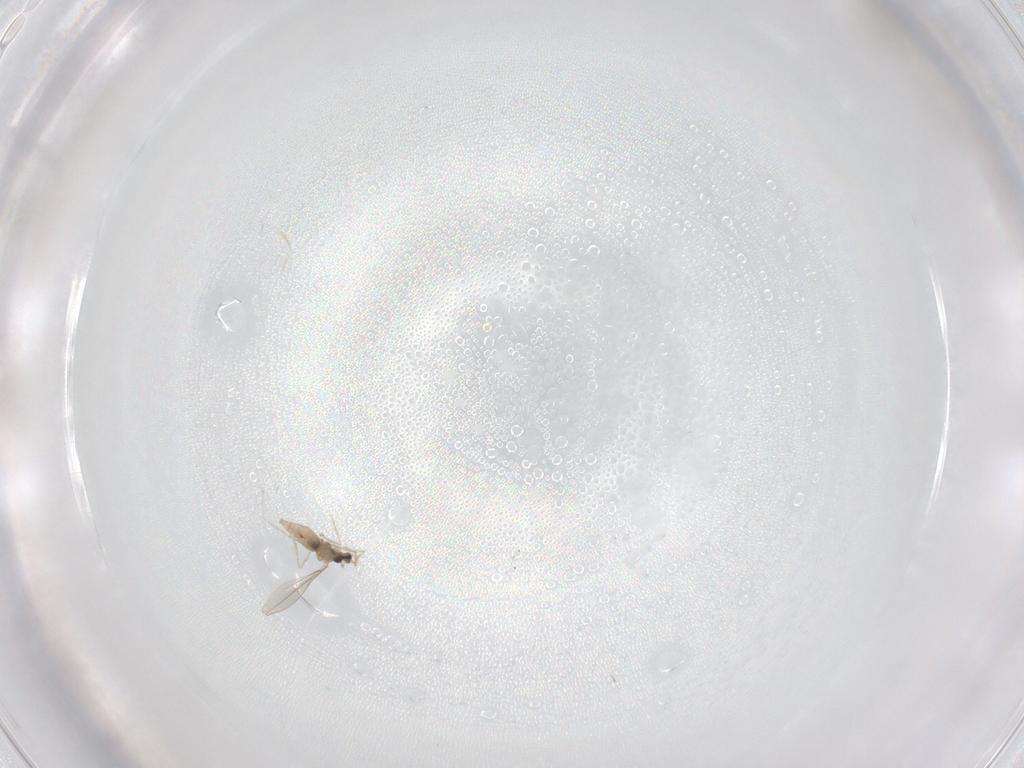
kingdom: Animalia
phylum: Arthropoda
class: Insecta
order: Diptera
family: Cecidomyiidae
